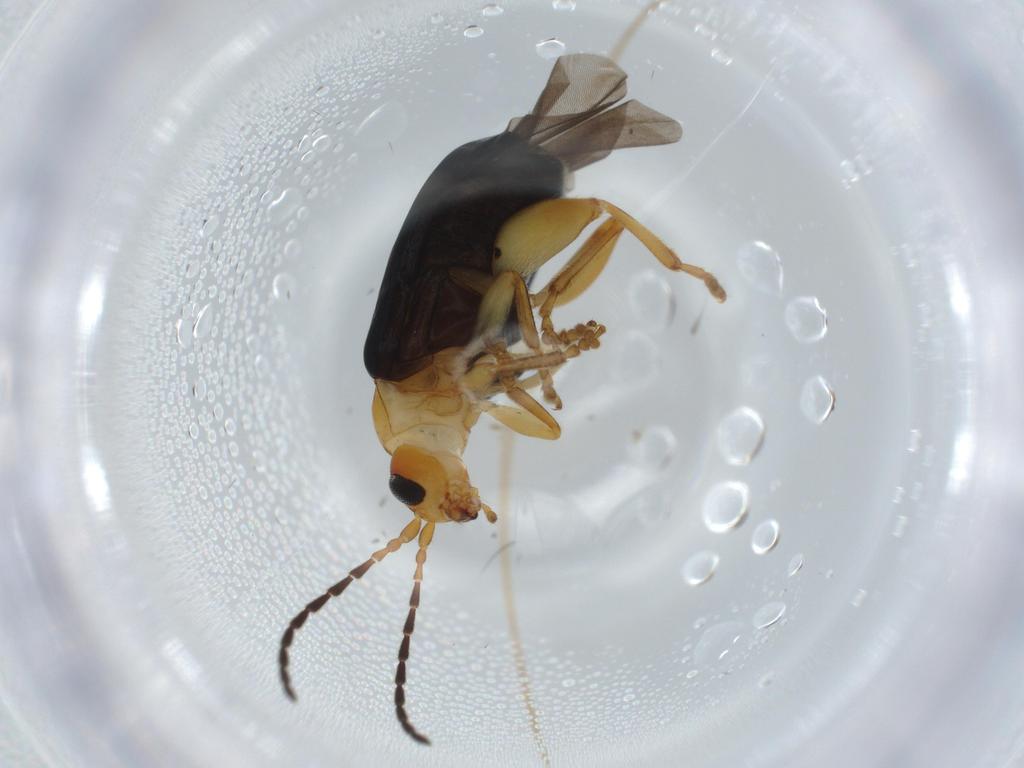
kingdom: Animalia
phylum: Arthropoda
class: Insecta
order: Coleoptera
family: Chrysomelidae
